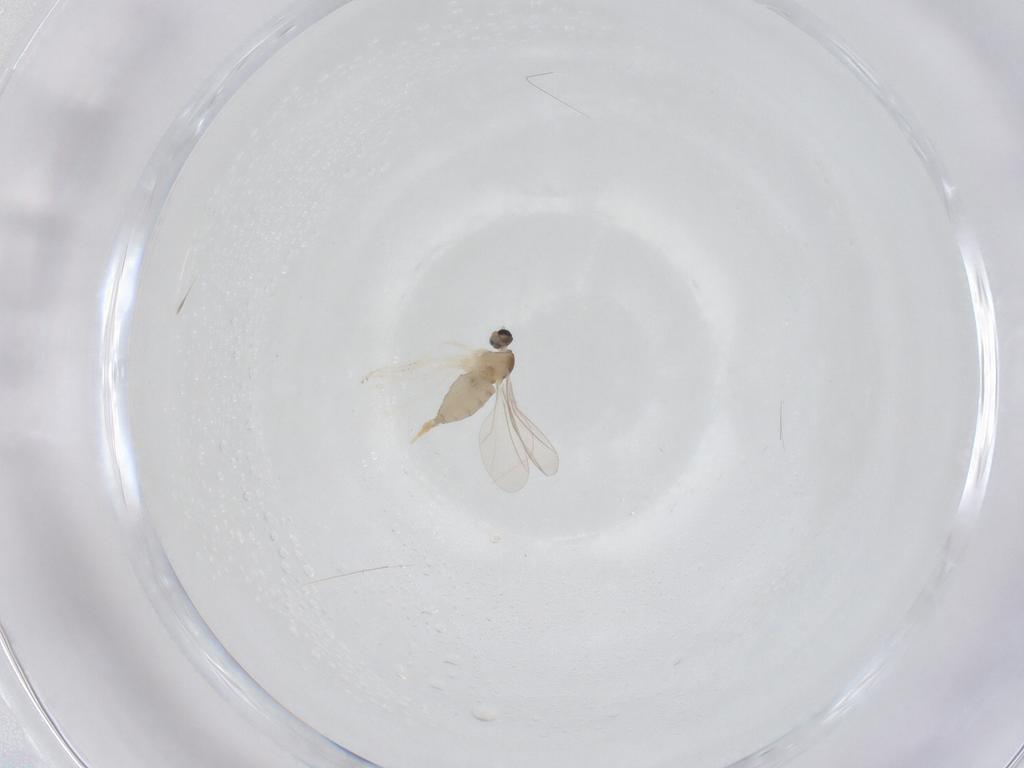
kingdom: Animalia
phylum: Arthropoda
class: Insecta
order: Diptera
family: Cecidomyiidae
